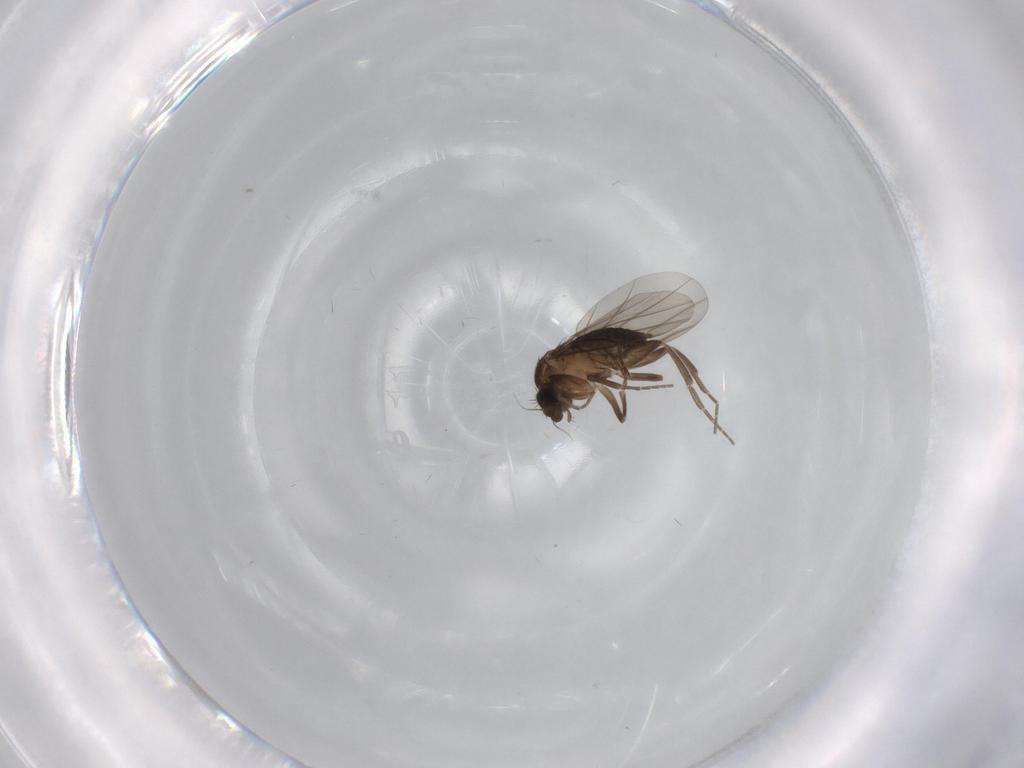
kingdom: Animalia
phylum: Arthropoda
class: Insecta
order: Diptera
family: Phoridae
